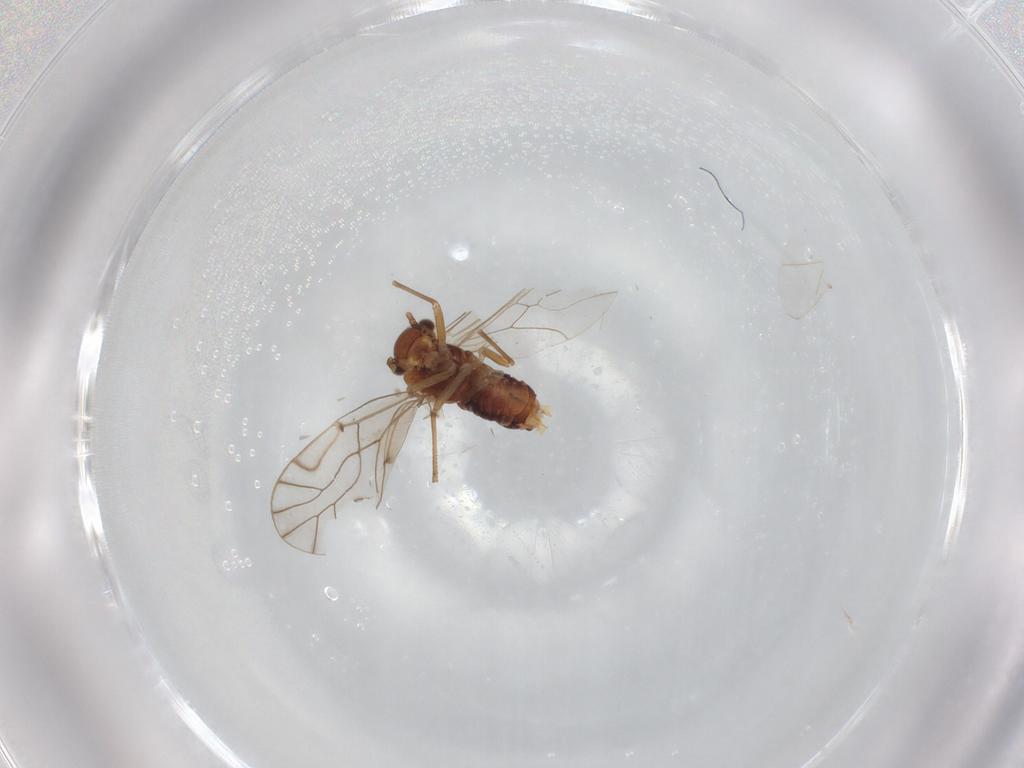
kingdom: Animalia
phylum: Arthropoda
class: Insecta
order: Psocodea
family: Lachesillidae
